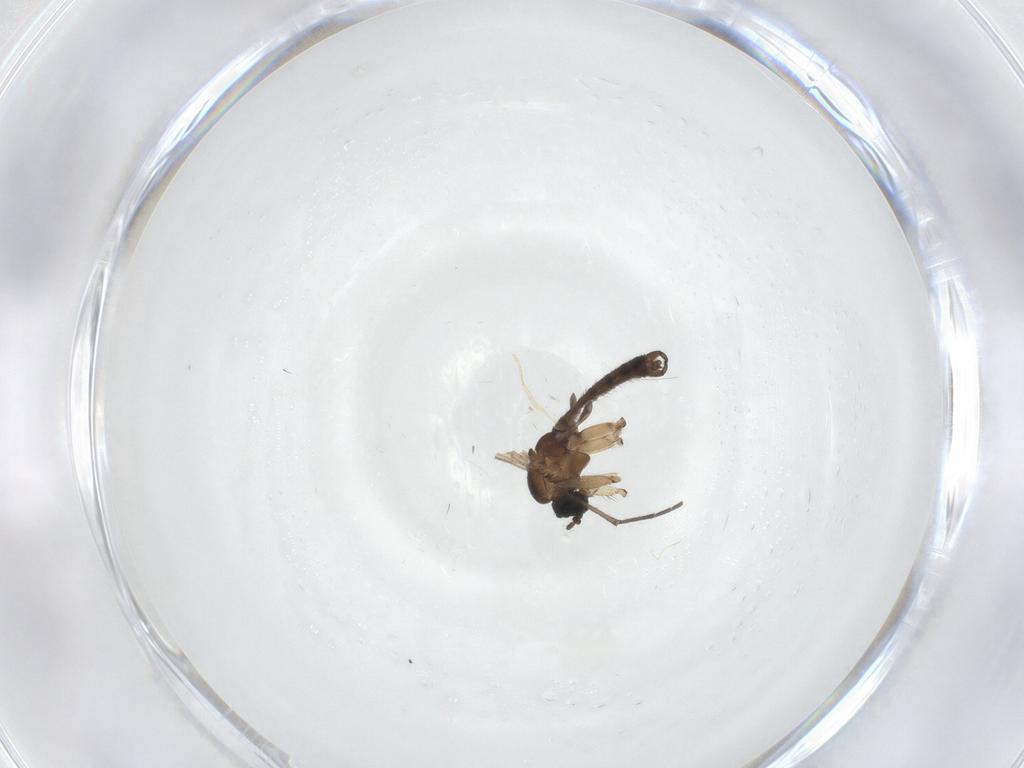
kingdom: Animalia
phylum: Arthropoda
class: Insecta
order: Diptera
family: Sciaridae
